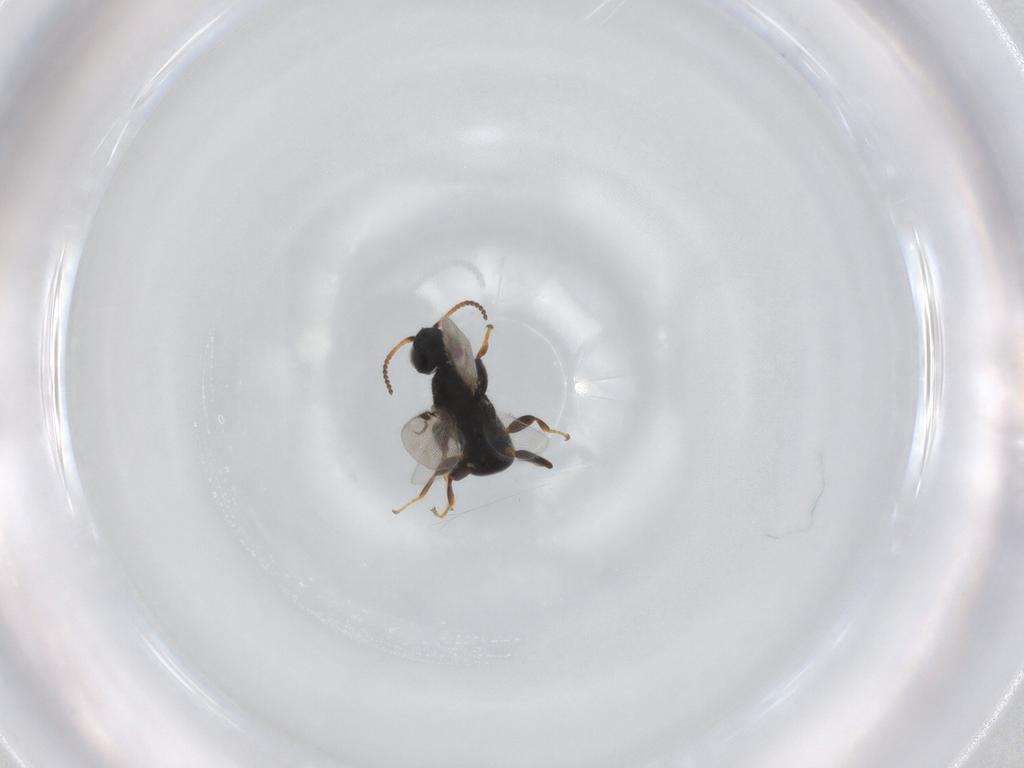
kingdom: Animalia
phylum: Arthropoda
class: Insecta
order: Hymenoptera
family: Bethylidae
